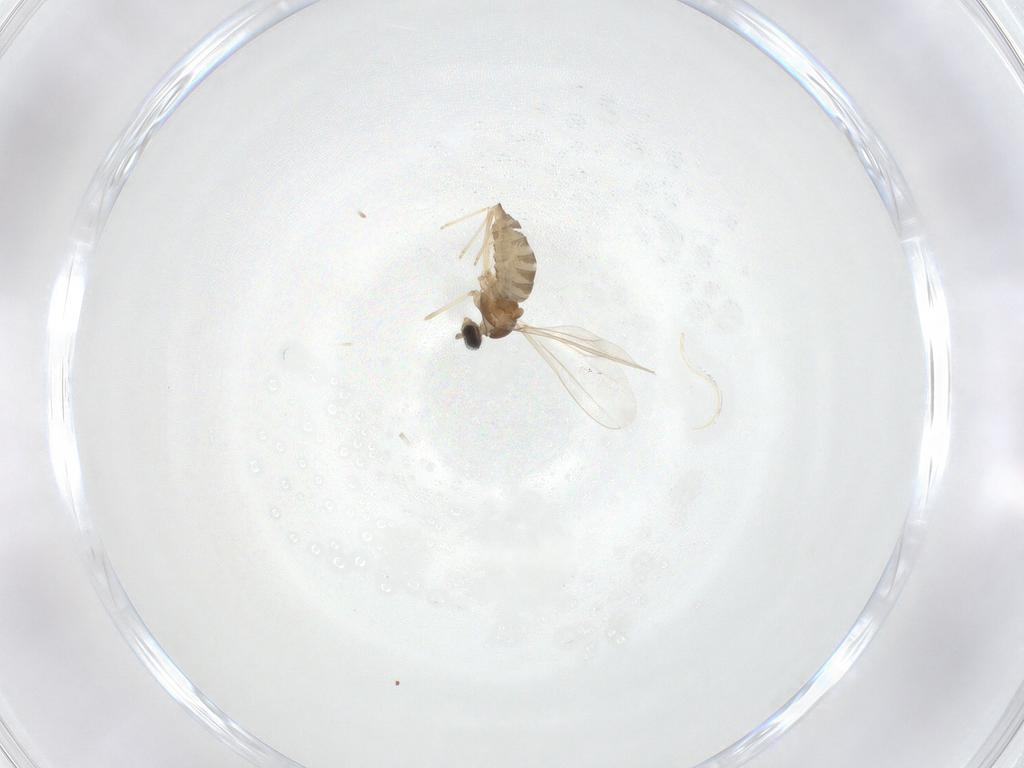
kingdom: Animalia
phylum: Arthropoda
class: Insecta
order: Diptera
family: Cecidomyiidae
